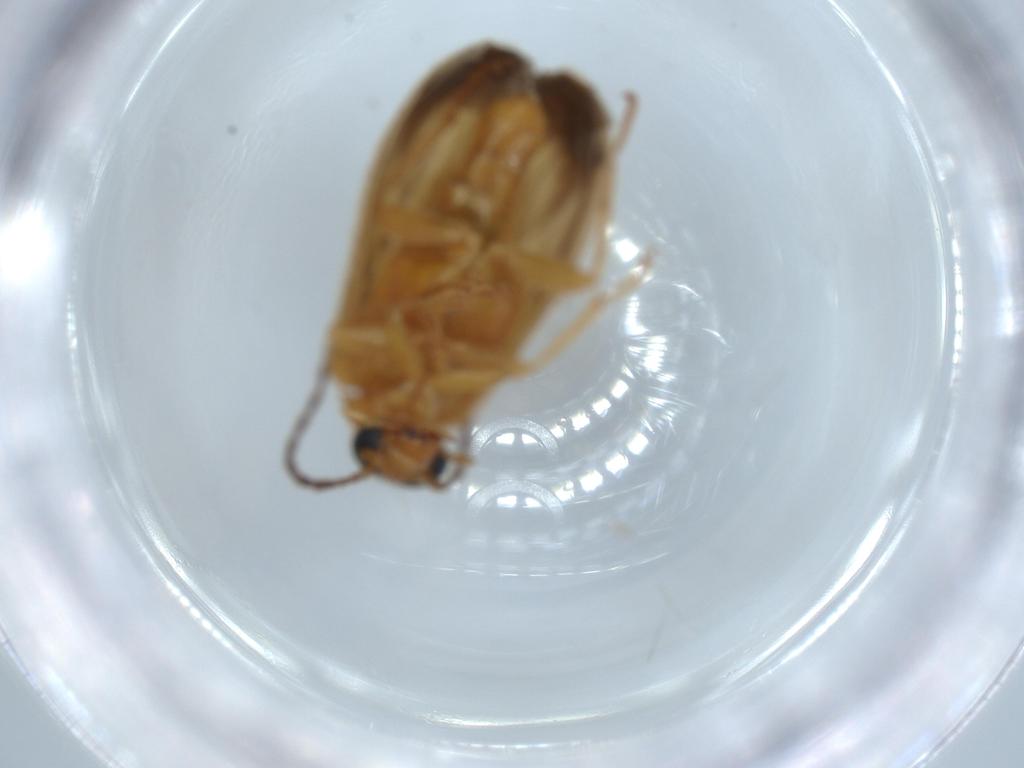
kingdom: Animalia
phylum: Arthropoda
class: Insecta
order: Coleoptera
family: Scraptiidae
